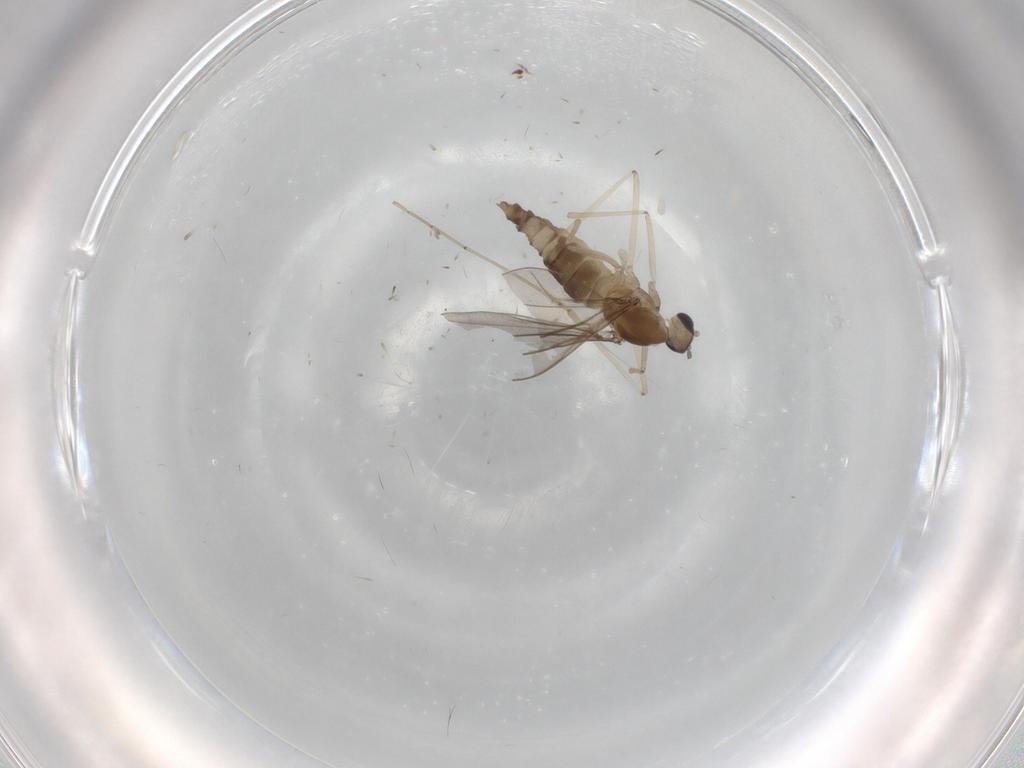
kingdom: Animalia
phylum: Arthropoda
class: Insecta
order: Diptera
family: Cecidomyiidae
